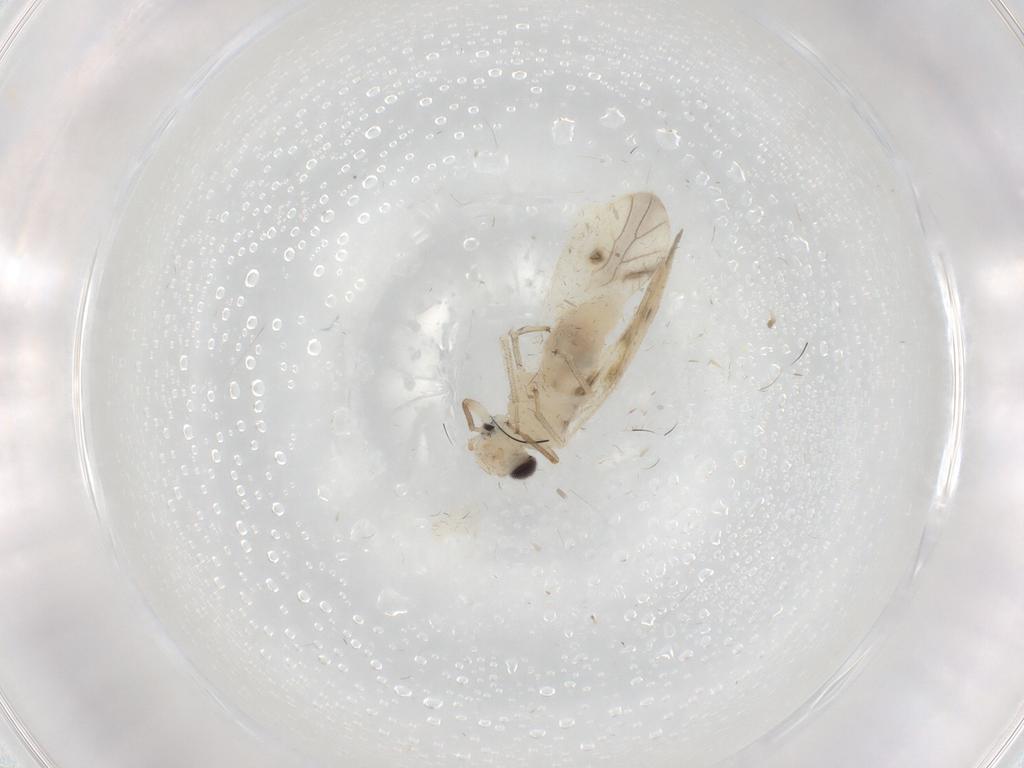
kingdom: Animalia
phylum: Arthropoda
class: Insecta
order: Psocodea
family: Caeciliusidae
